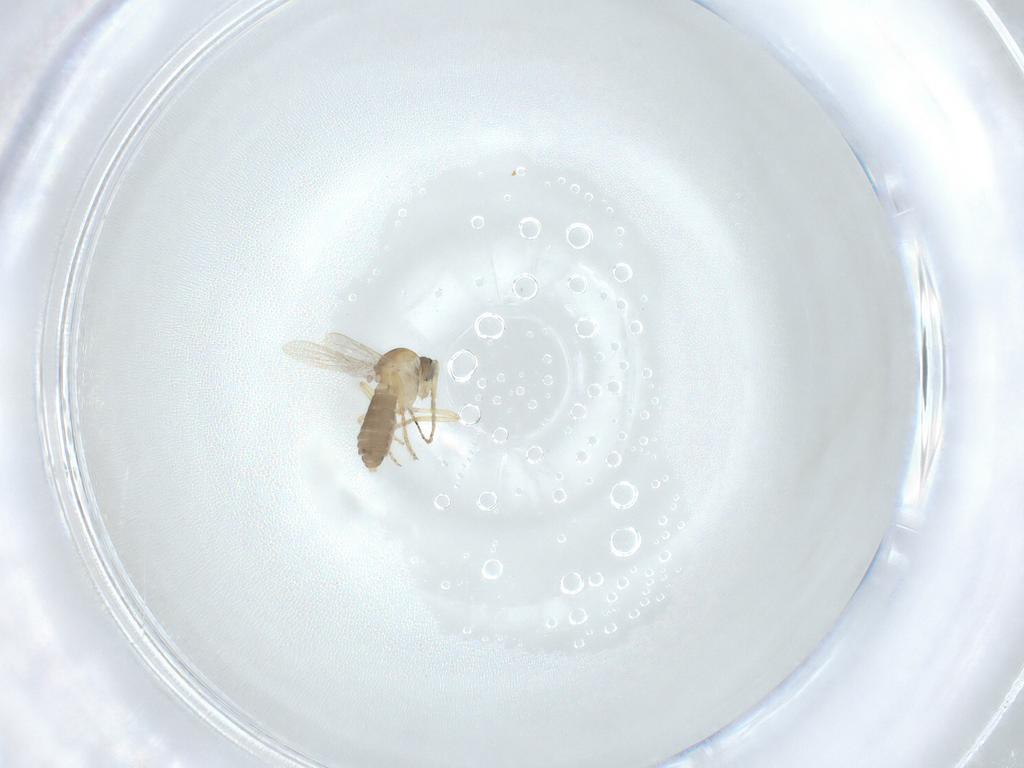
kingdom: Animalia
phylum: Arthropoda
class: Insecta
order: Diptera
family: Ceratopogonidae
